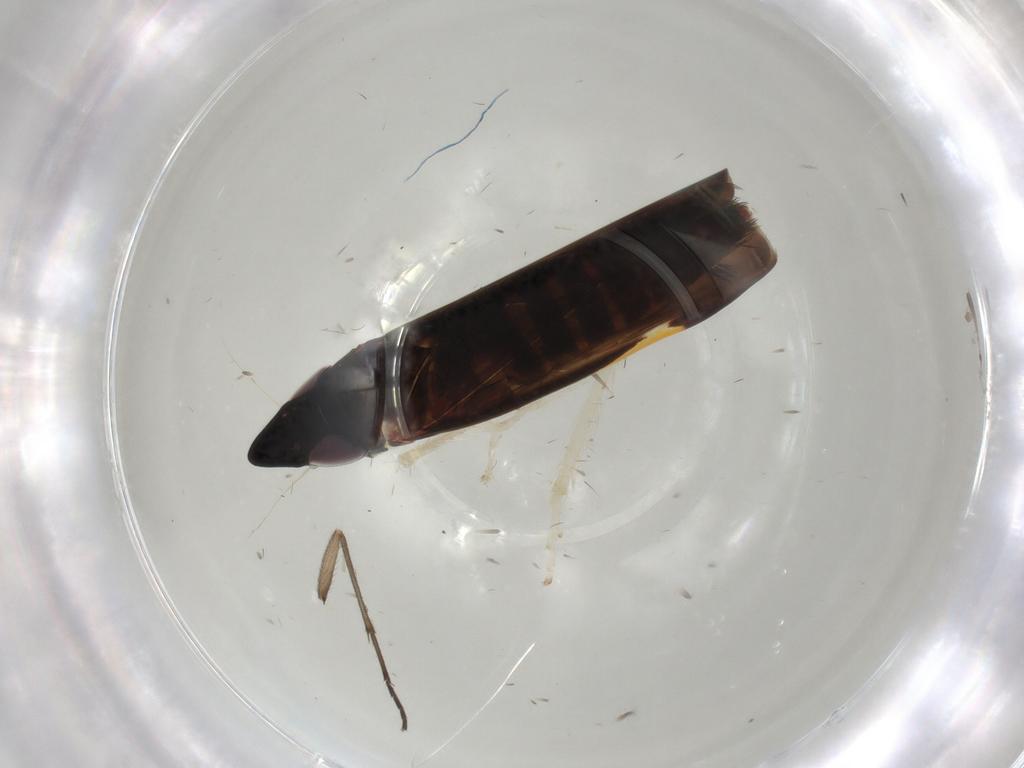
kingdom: Animalia
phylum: Arthropoda
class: Insecta
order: Hemiptera
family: Cicadellidae
